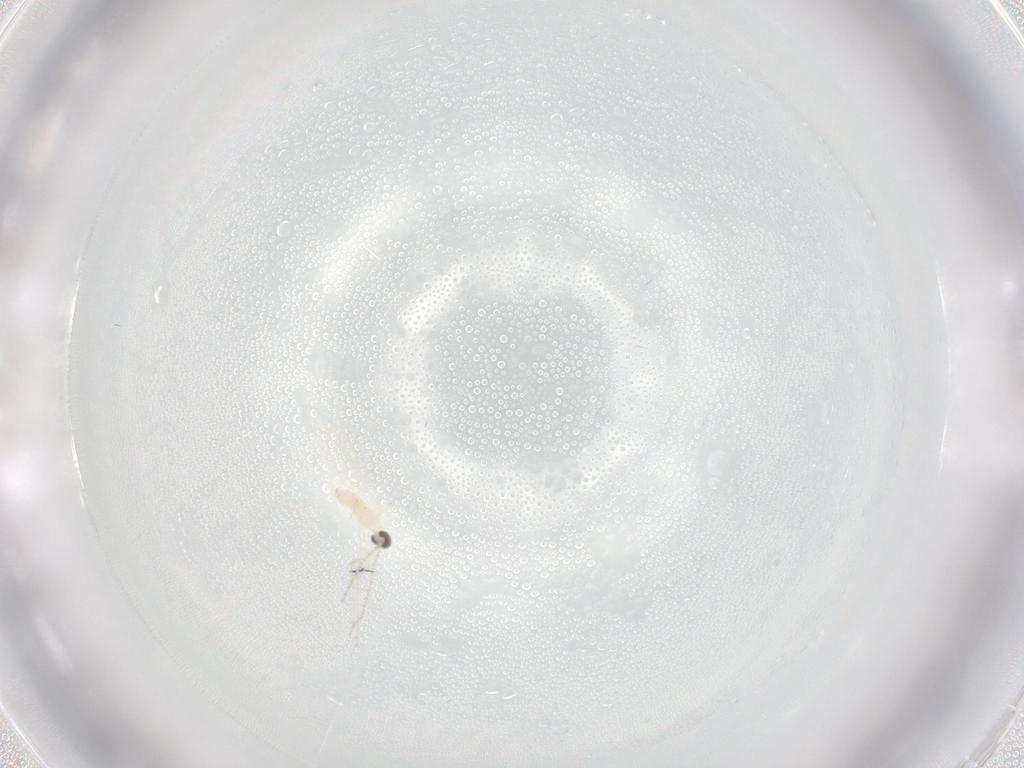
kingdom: Animalia
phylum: Arthropoda
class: Insecta
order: Diptera
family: Cecidomyiidae
